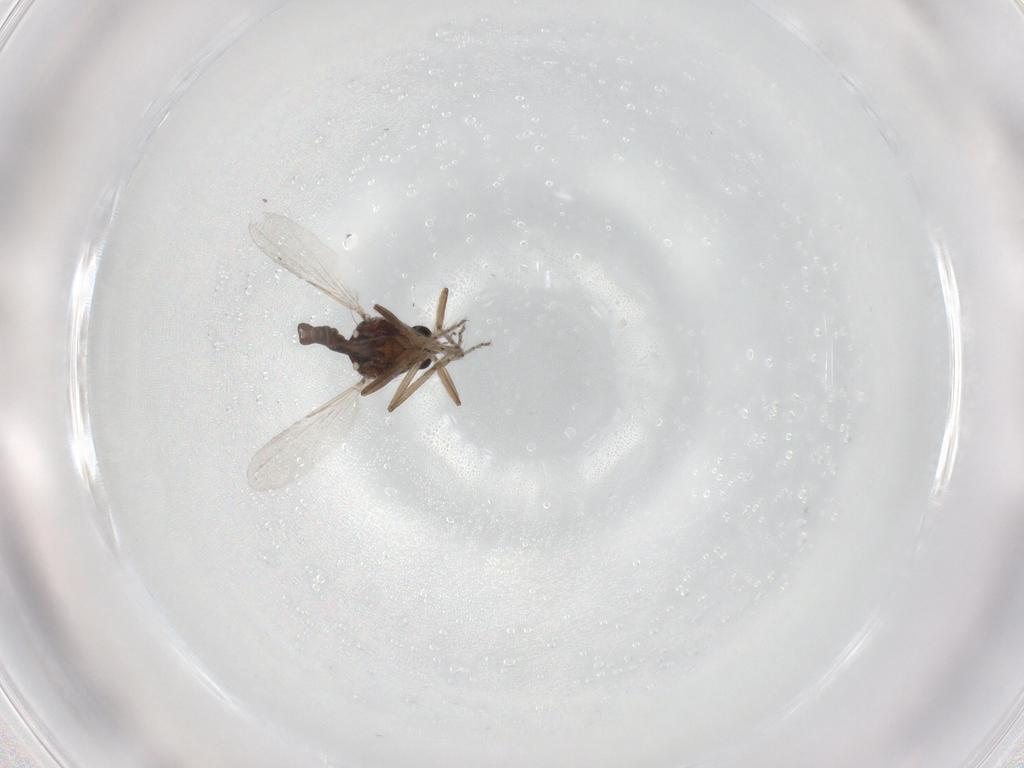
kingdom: Animalia
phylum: Arthropoda
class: Insecta
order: Diptera
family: Ceratopogonidae
